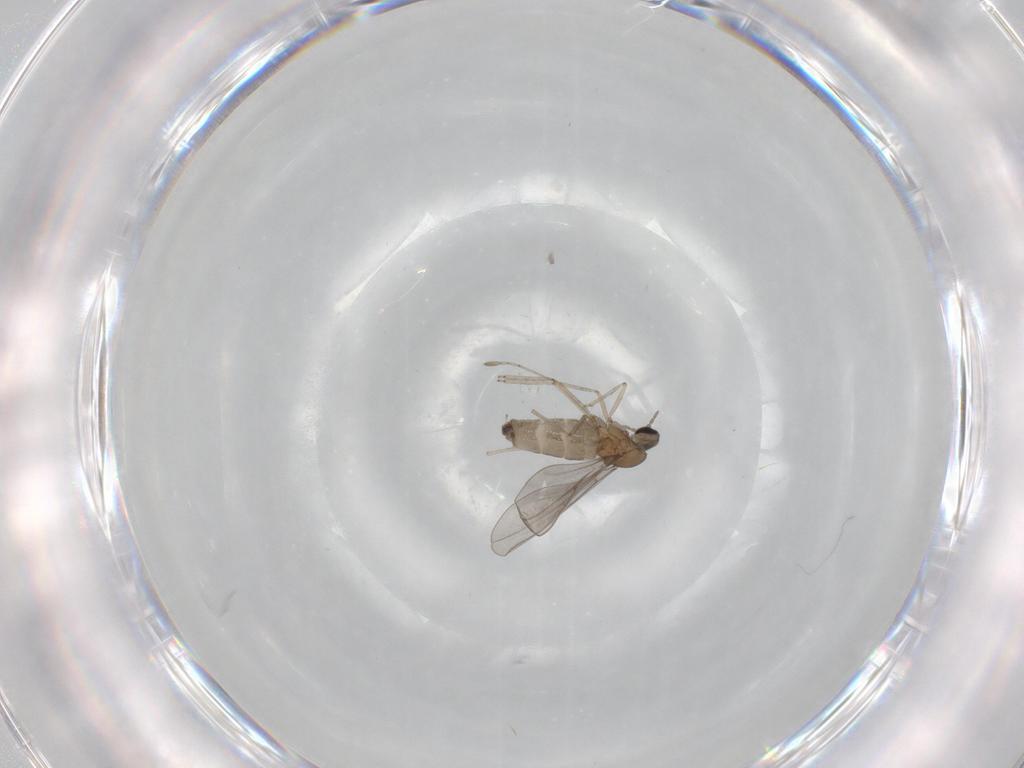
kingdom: Animalia
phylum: Arthropoda
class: Insecta
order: Diptera
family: Cecidomyiidae
